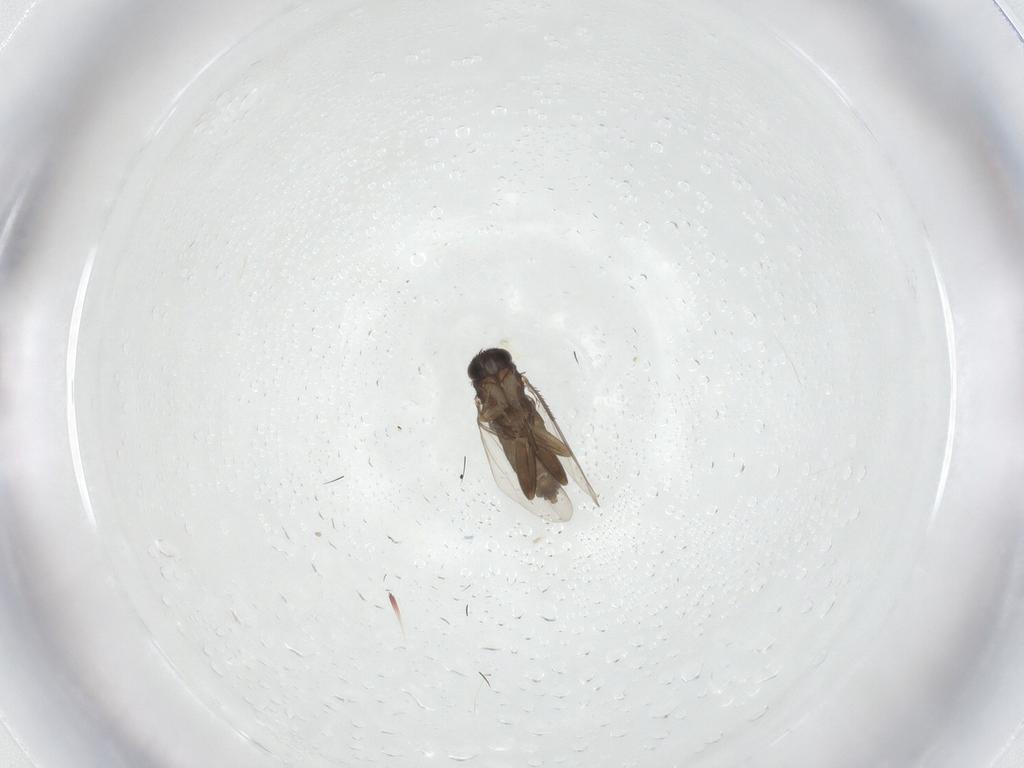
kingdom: Animalia
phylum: Arthropoda
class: Insecta
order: Diptera
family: Phoridae
